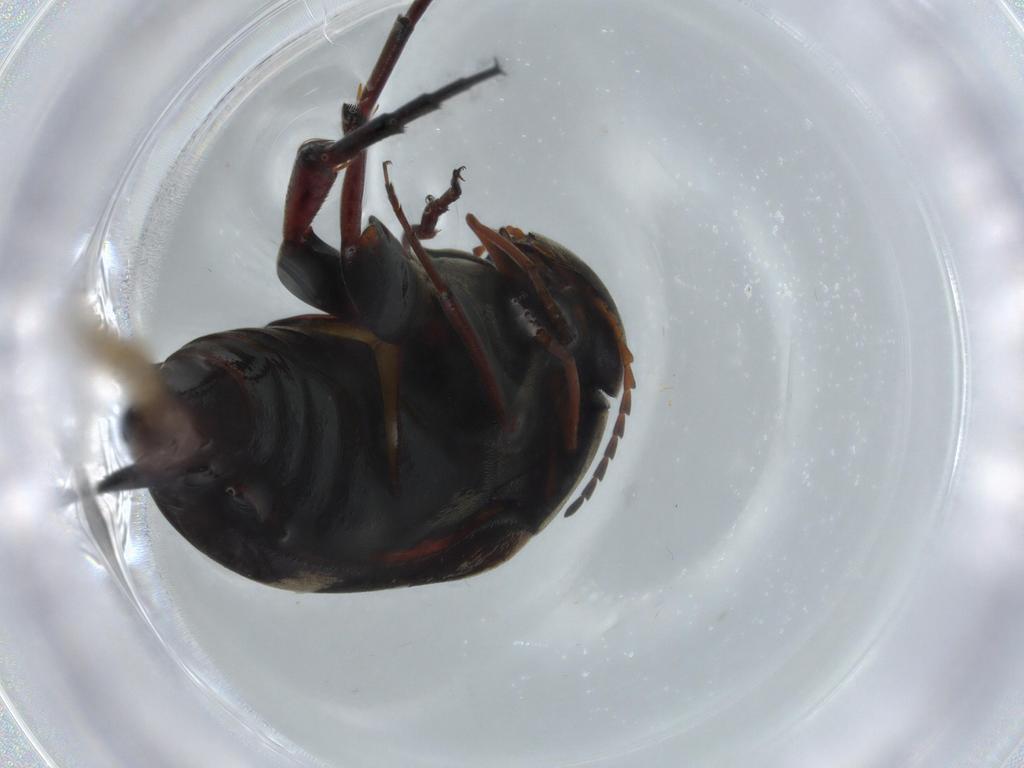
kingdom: Animalia
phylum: Arthropoda
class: Insecta
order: Coleoptera
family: Mordellidae
